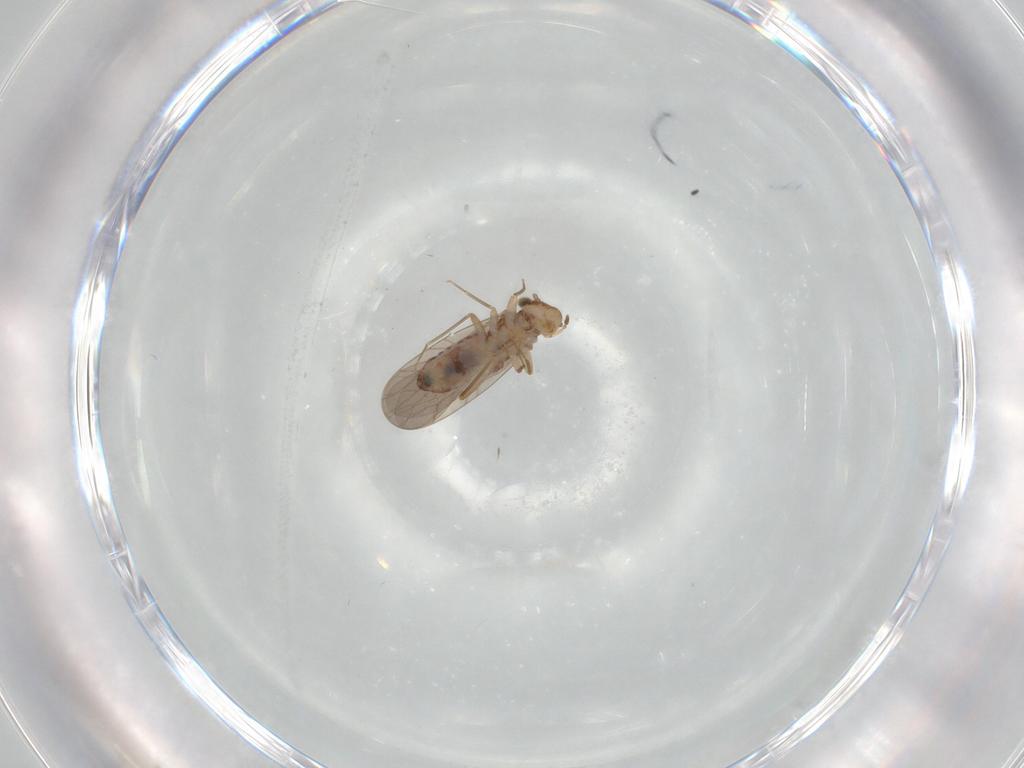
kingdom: Animalia
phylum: Arthropoda
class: Insecta
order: Psocodea
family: Lepidopsocidae
